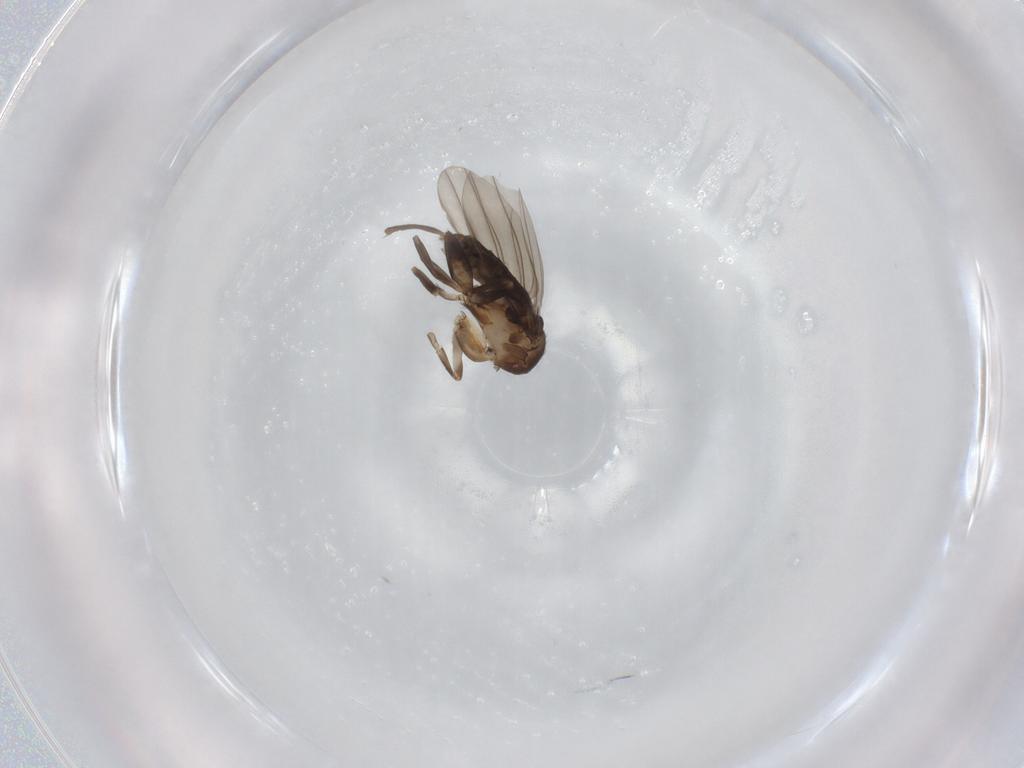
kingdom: Animalia
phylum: Arthropoda
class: Insecta
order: Diptera
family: Phoridae
